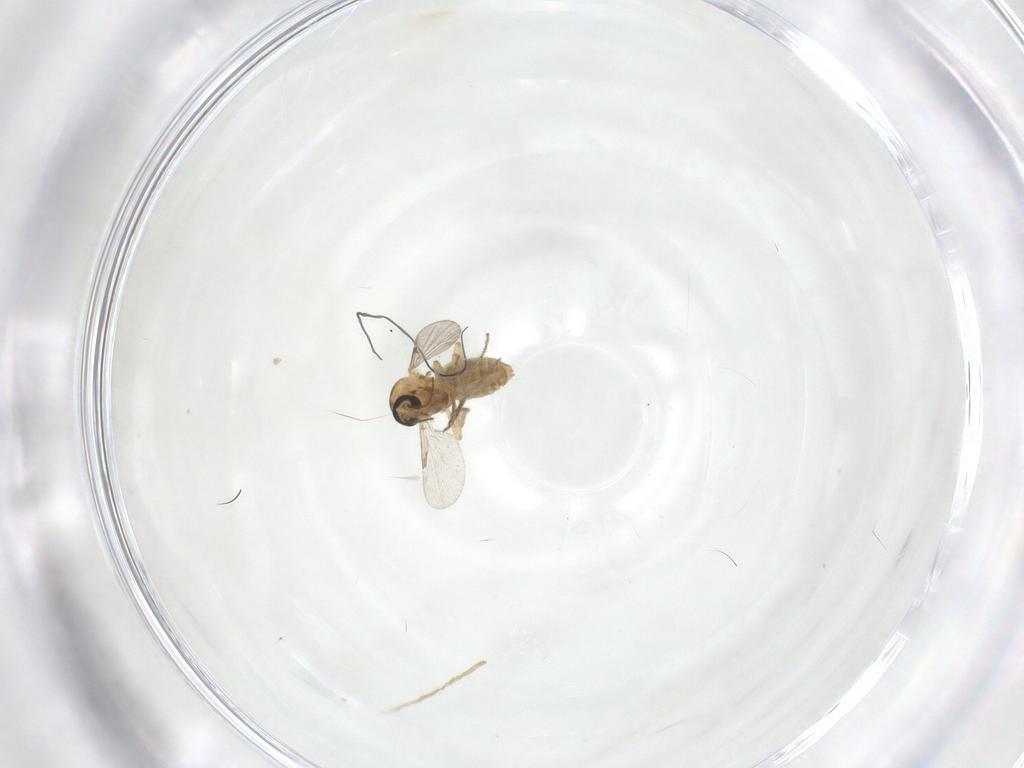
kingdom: Animalia
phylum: Arthropoda
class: Insecta
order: Diptera
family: Ceratopogonidae
